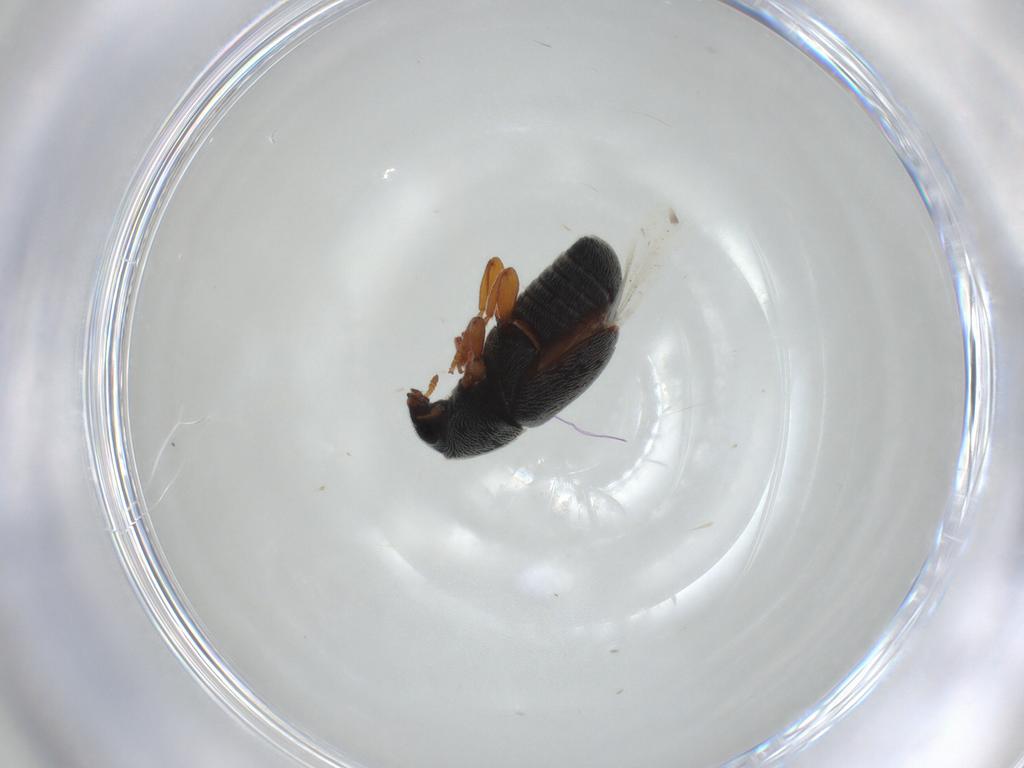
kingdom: Animalia
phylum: Arthropoda
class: Insecta
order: Coleoptera
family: Anthribidae
